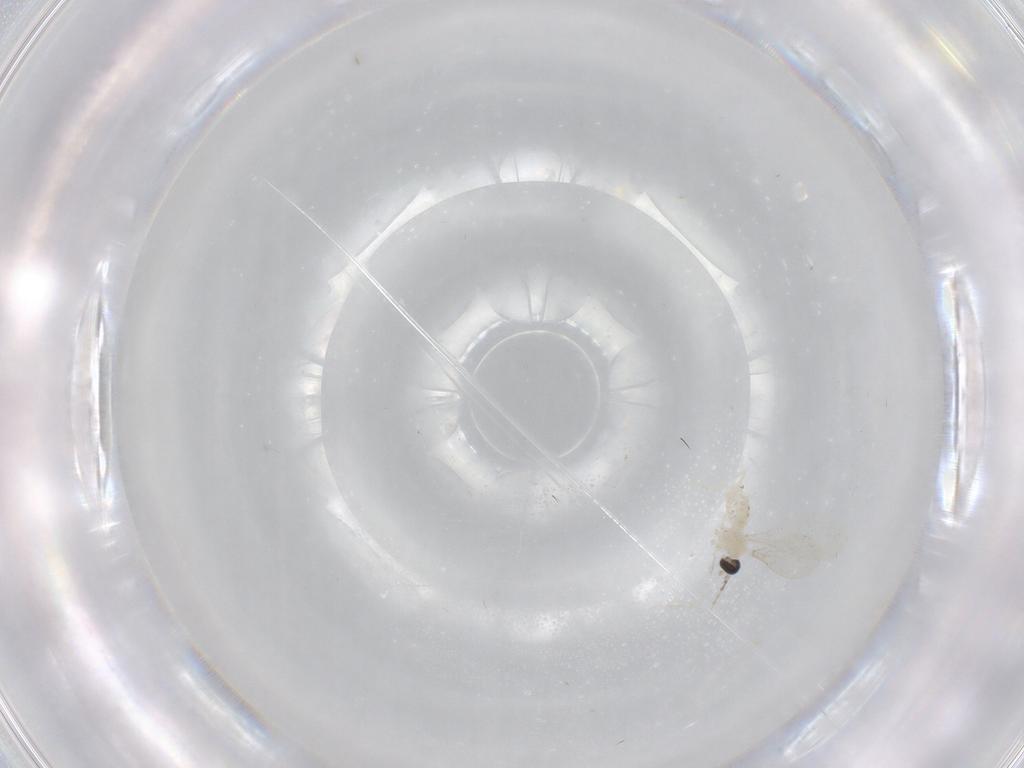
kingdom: Animalia
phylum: Arthropoda
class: Insecta
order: Diptera
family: Cecidomyiidae
